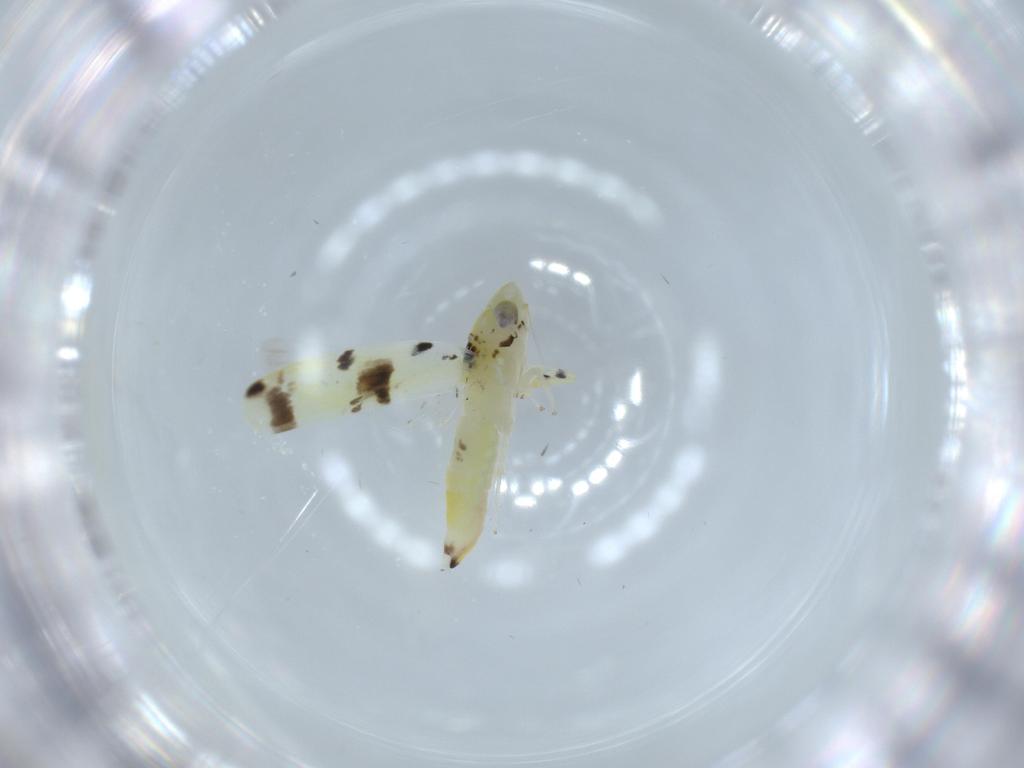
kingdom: Animalia
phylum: Arthropoda
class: Insecta
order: Hemiptera
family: Cicadellidae
